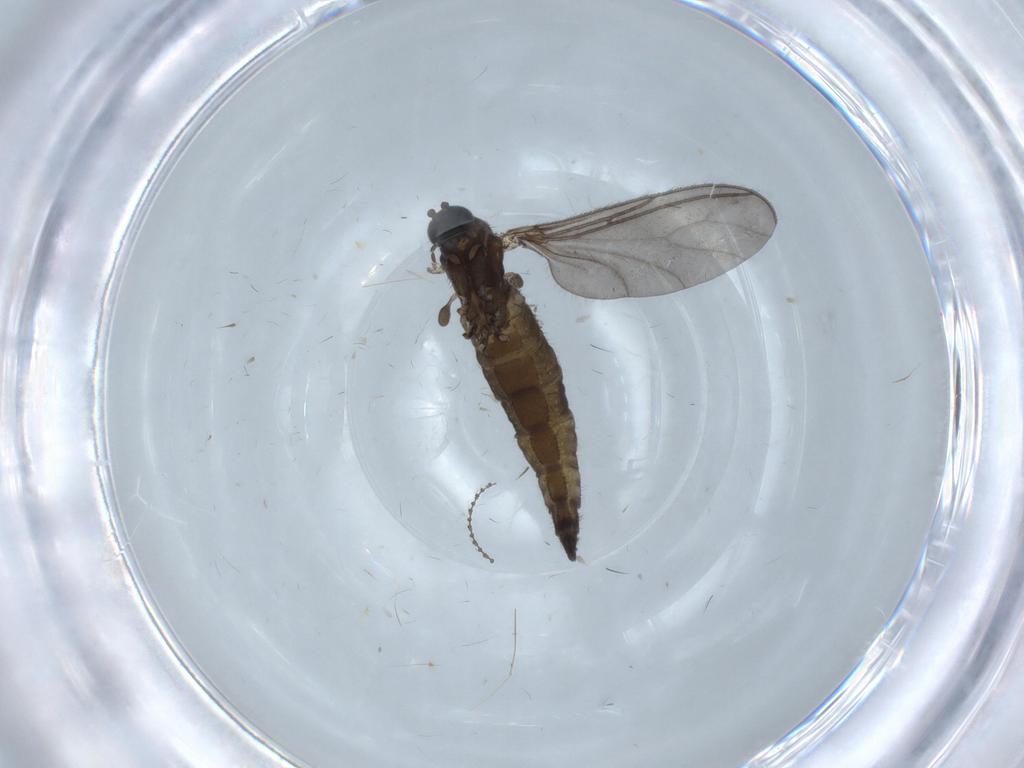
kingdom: Animalia
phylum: Arthropoda
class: Insecta
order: Diptera
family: Sciaridae
